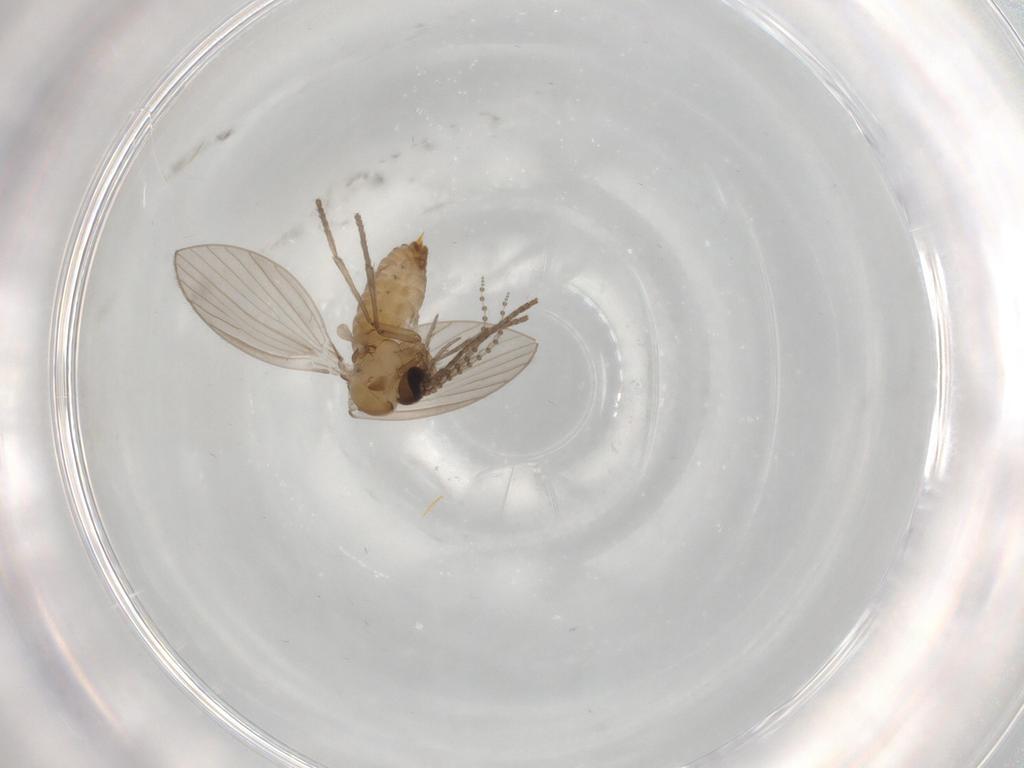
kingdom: Animalia
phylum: Arthropoda
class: Insecta
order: Diptera
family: Psychodidae
